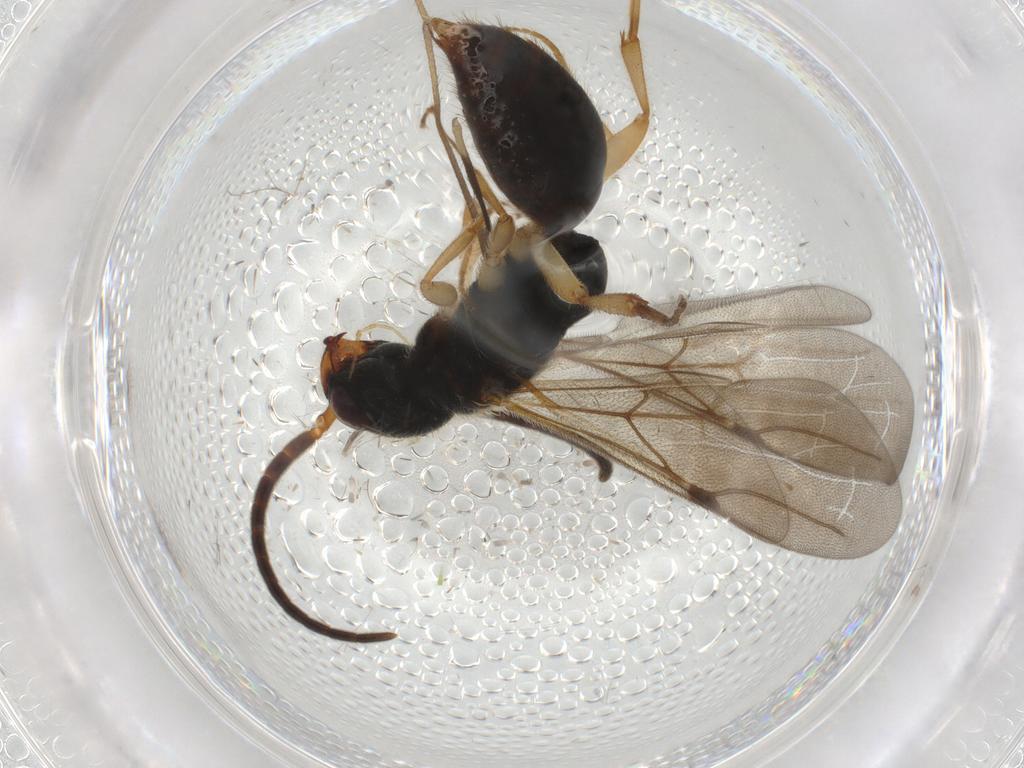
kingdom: Animalia
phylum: Arthropoda
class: Insecta
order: Hymenoptera
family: Bethylidae
